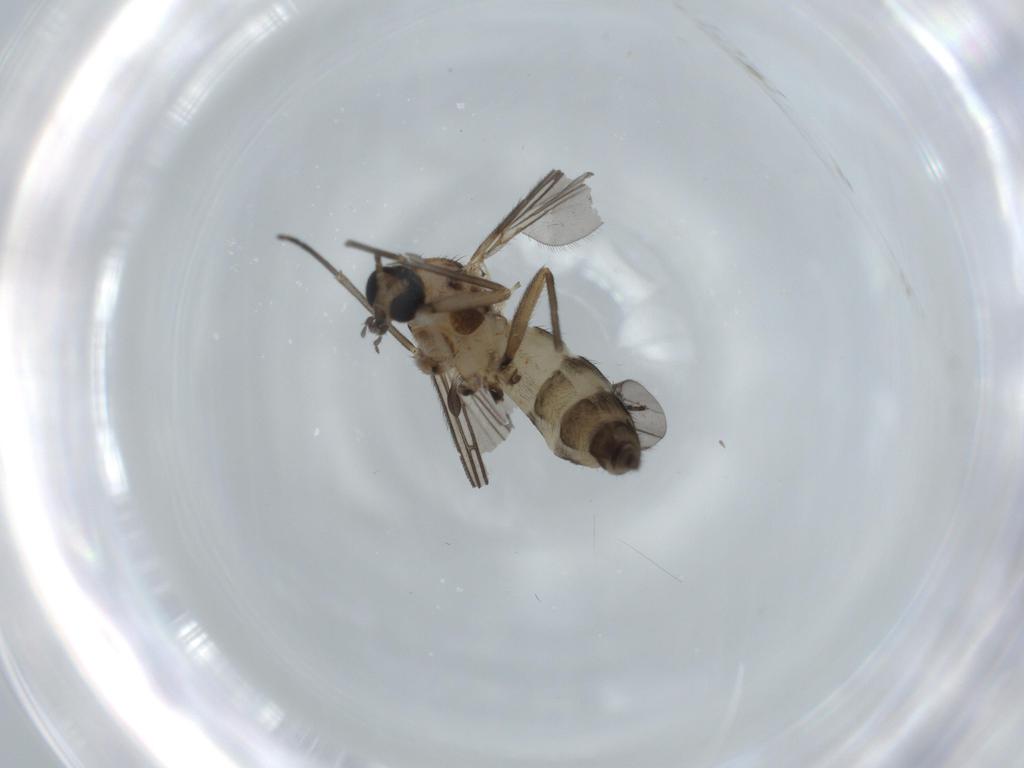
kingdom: Animalia
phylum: Arthropoda
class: Insecta
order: Diptera
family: Sciaridae
